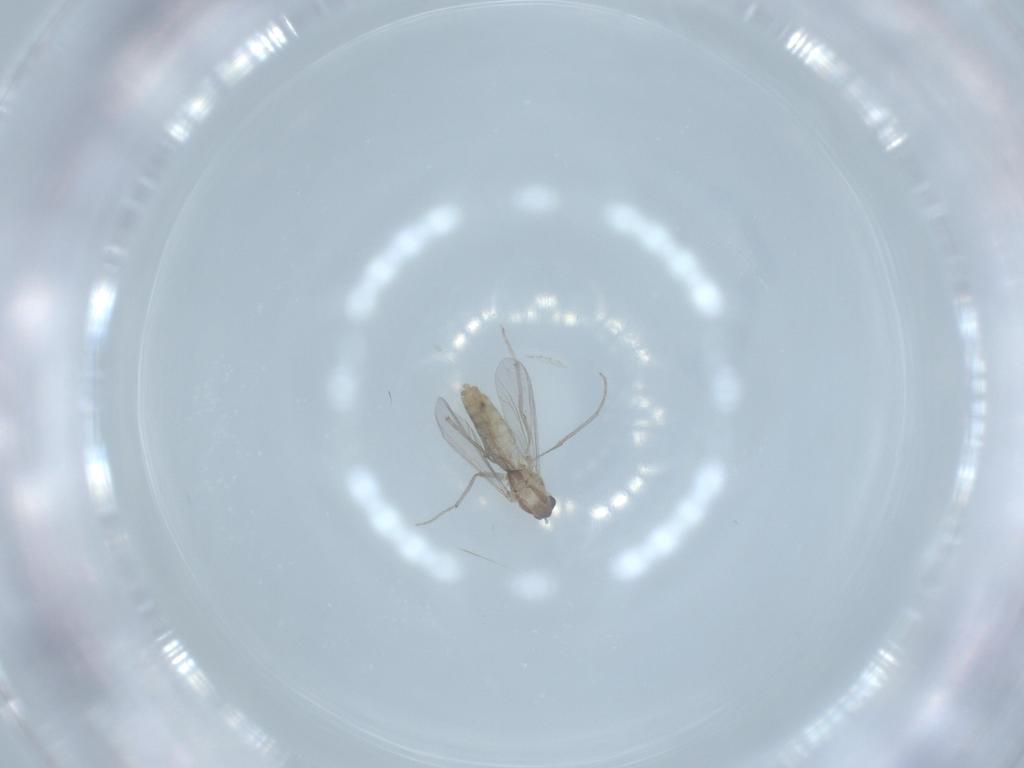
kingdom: Animalia
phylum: Arthropoda
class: Insecta
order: Diptera
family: Chironomidae
